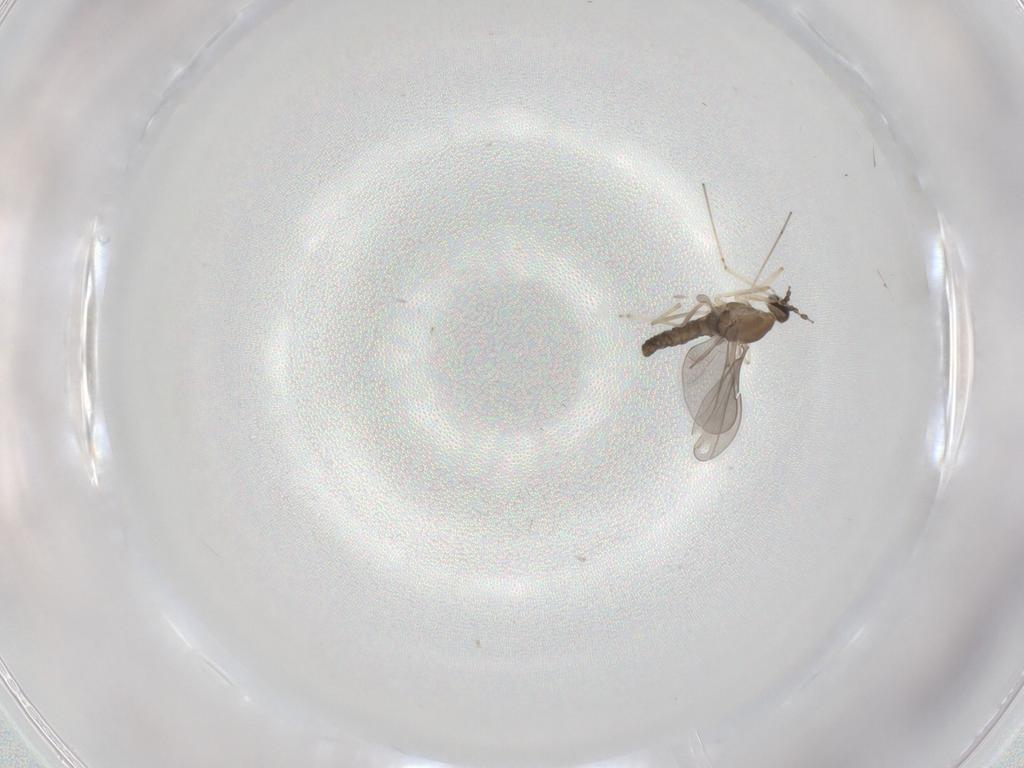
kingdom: Animalia
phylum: Arthropoda
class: Insecta
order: Diptera
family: Cecidomyiidae
